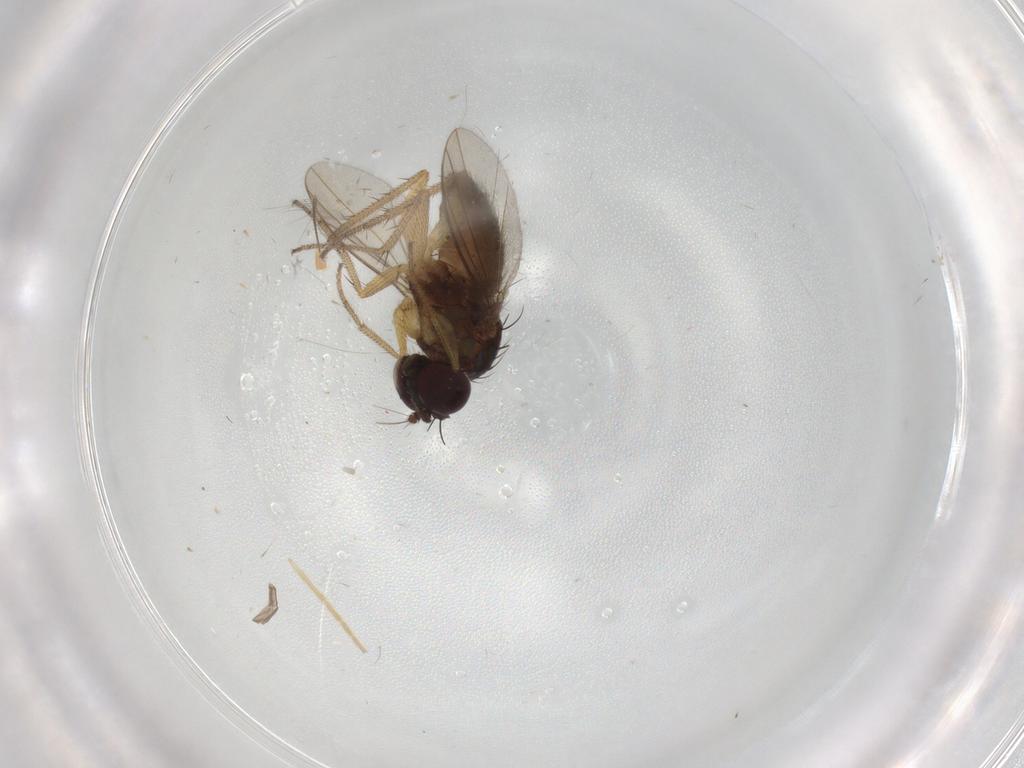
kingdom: Animalia
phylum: Arthropoda
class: Insecta
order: Diptera
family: Chironomidae
